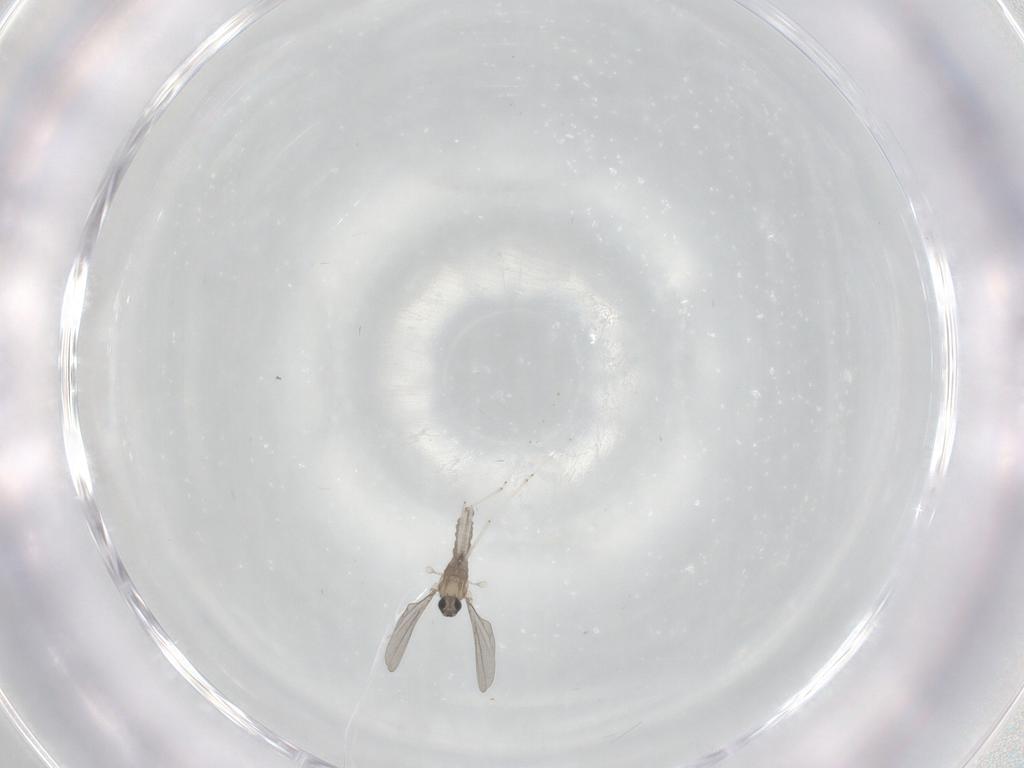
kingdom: Animalia
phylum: Arthropoda
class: Insecta
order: Diptera
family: Cecidomyiidae
